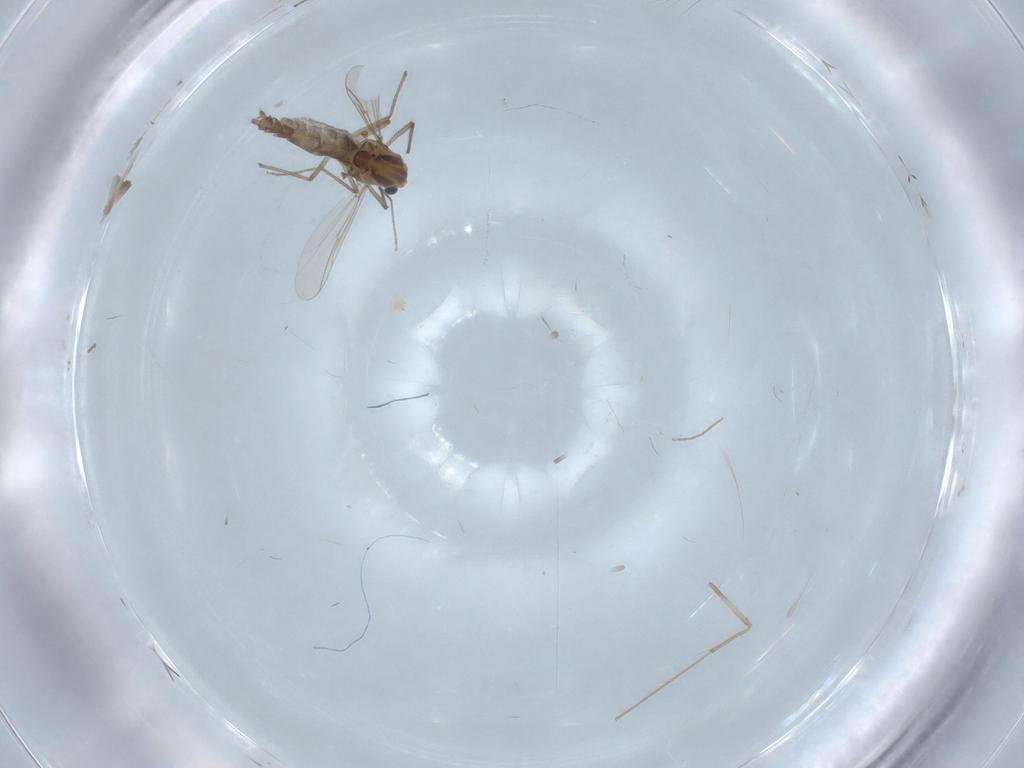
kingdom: Animalia
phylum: Arthropoda
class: Insecta
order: Diptera
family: Chironomidae
